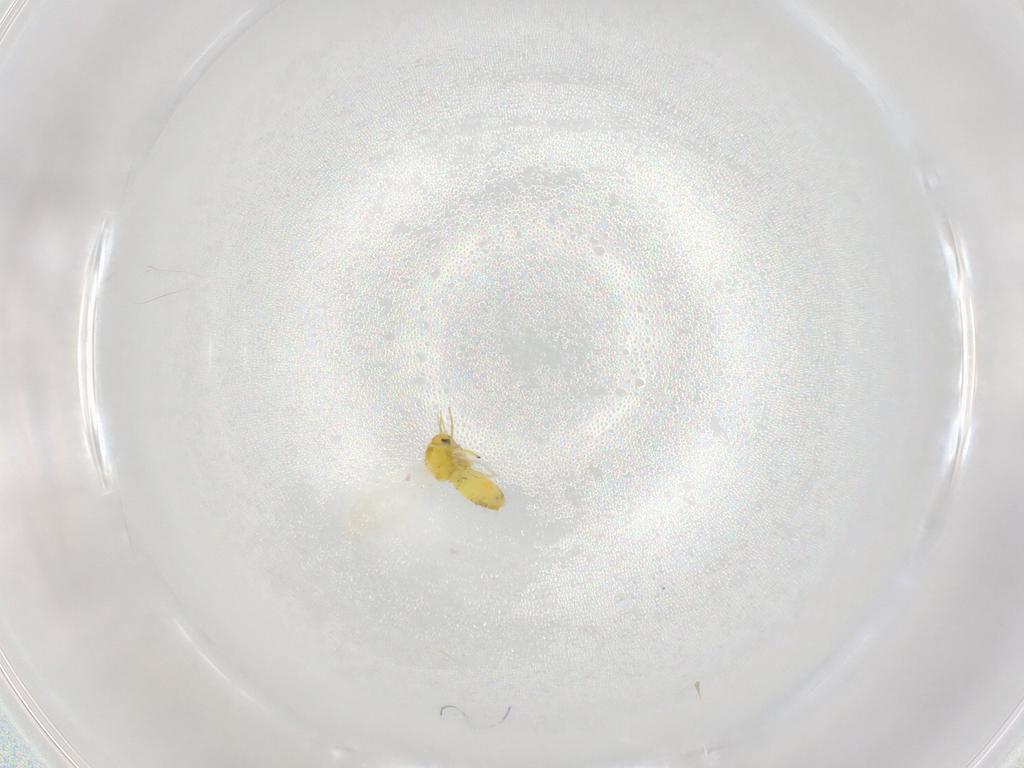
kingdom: Animalia
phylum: Arthropoda
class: Insecta
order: Hemiptera
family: Aleyrodidae
